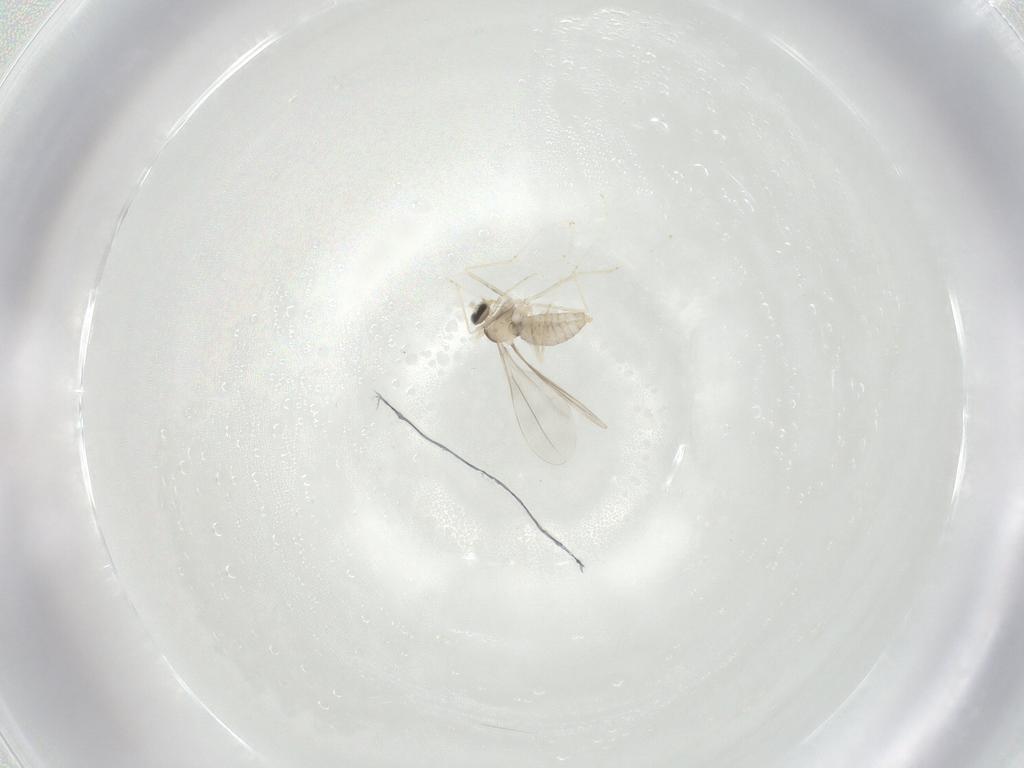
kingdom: Animalia
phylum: Arthropoda
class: Insecta
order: Diptera
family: Cecidomyiidae
